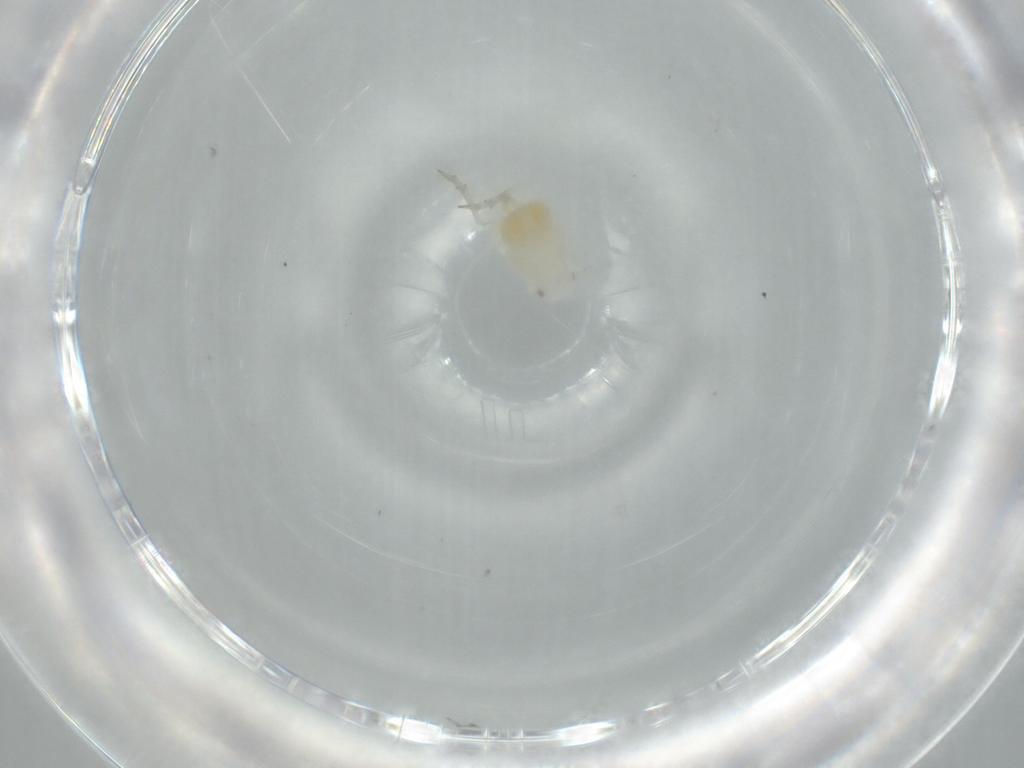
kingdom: Animalia
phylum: Arthropoda
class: Insecta
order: Hemiptera
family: Flatidae
